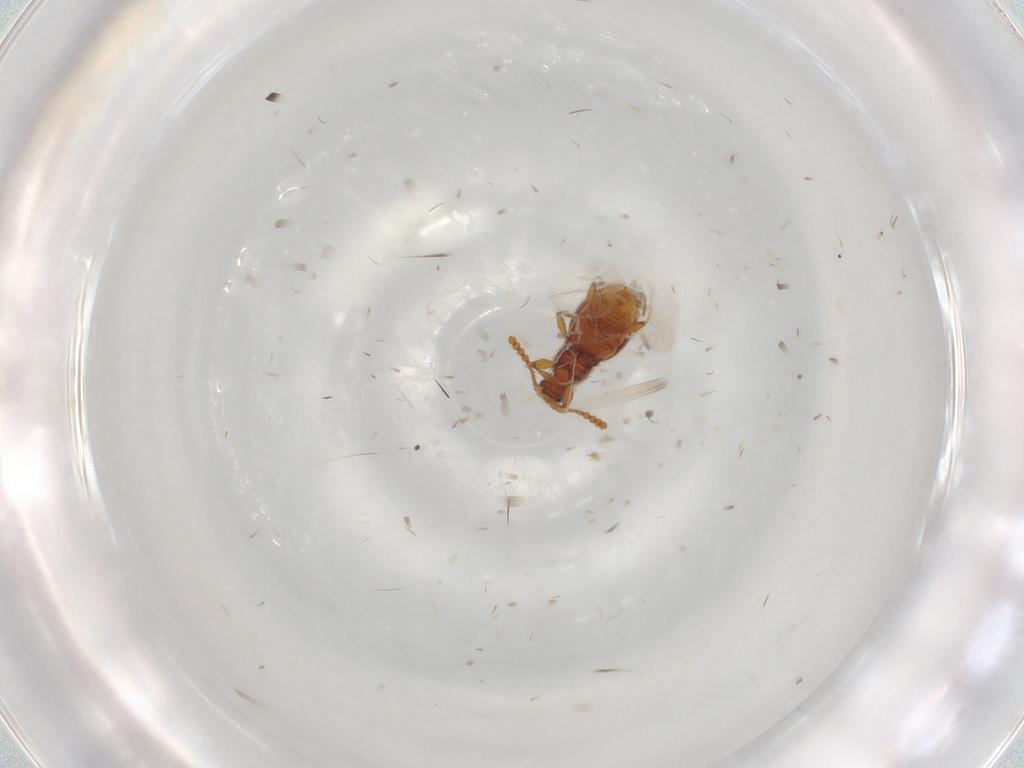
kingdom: Animalia
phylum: Arthropoda
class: Insecta
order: Coleoptera
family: Staphylinidae
